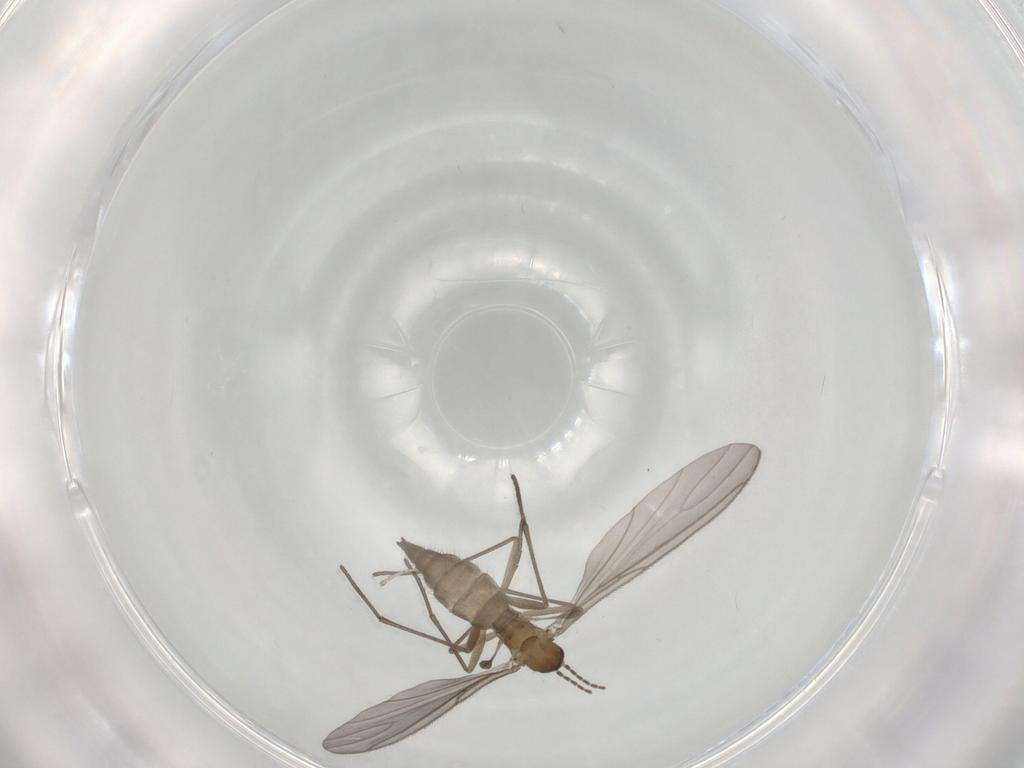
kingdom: Animalia
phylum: Arthropoda
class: Insecta
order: Diptera
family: Sciaridae
